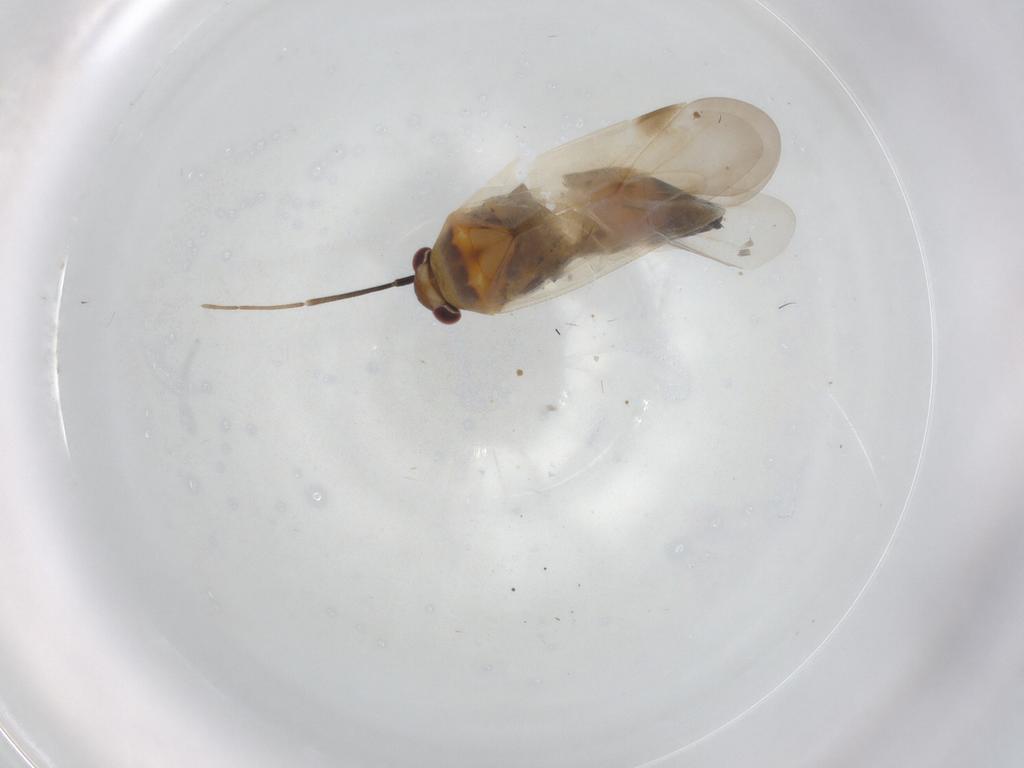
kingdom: Animalia
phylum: Arthropoda
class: Insecta
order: Hemiptera
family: Miridae
